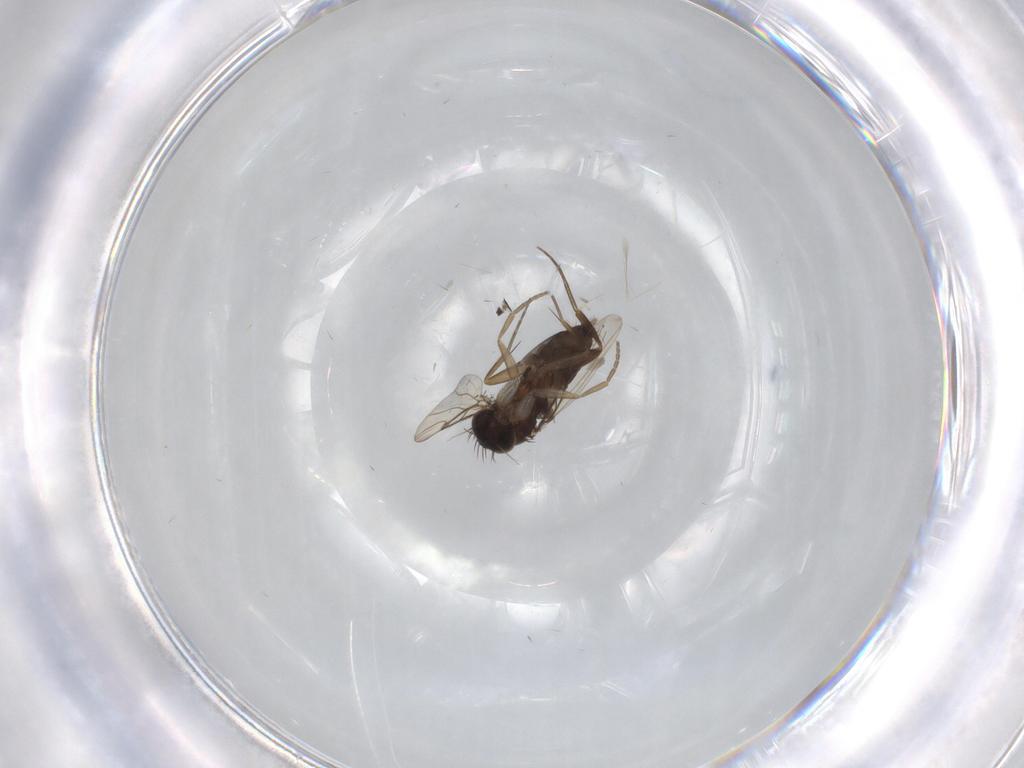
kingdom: Animalia
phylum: Arthropoda
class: Insecta
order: Diptera
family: Phoridae
